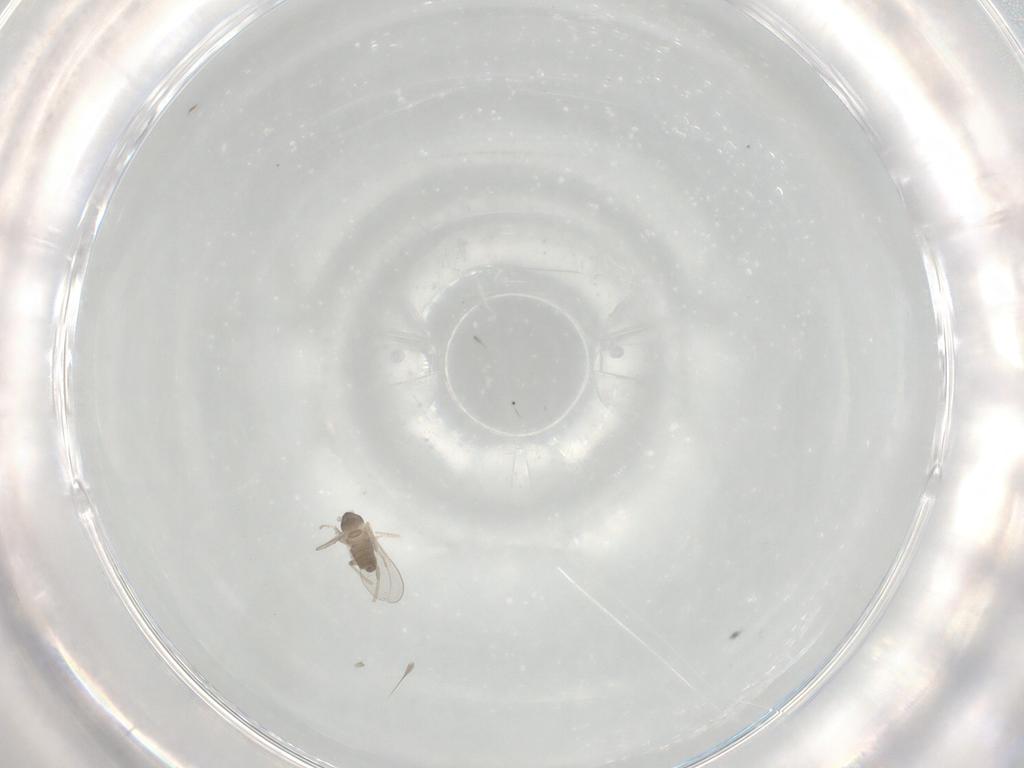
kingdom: Animalia
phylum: Arthropoda
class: Insecta
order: Diptera
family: Cecidomyiidae
